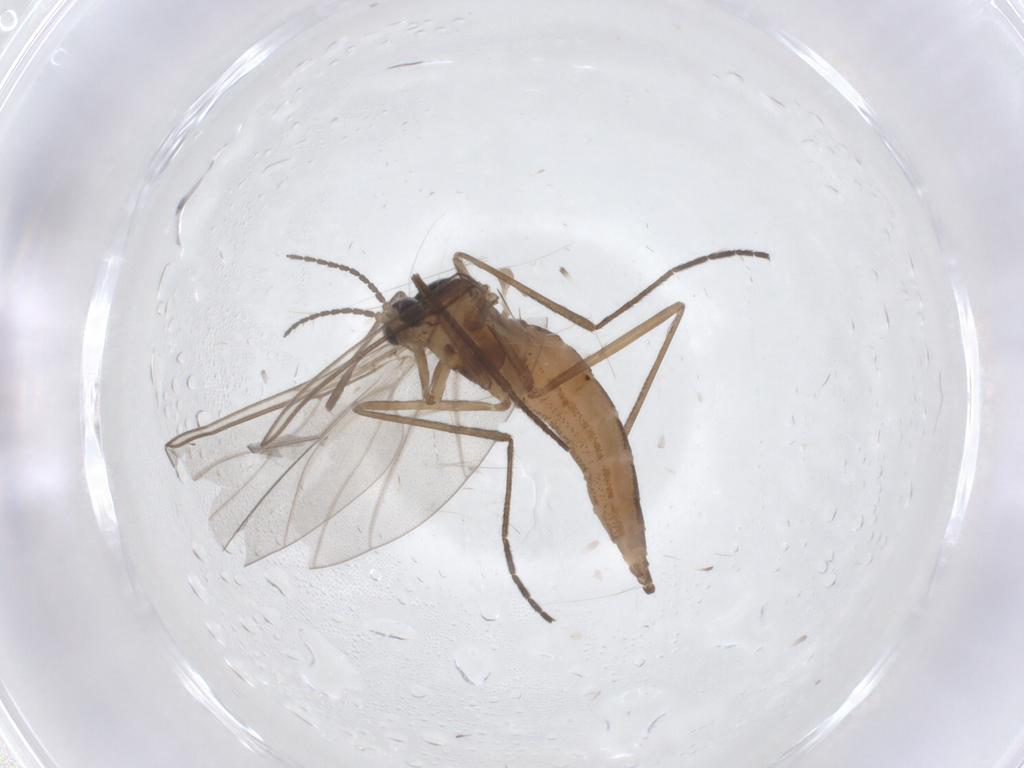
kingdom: Animalia
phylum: Arthropoda
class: Insecta
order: Diptera
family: Cecidomyiidae
